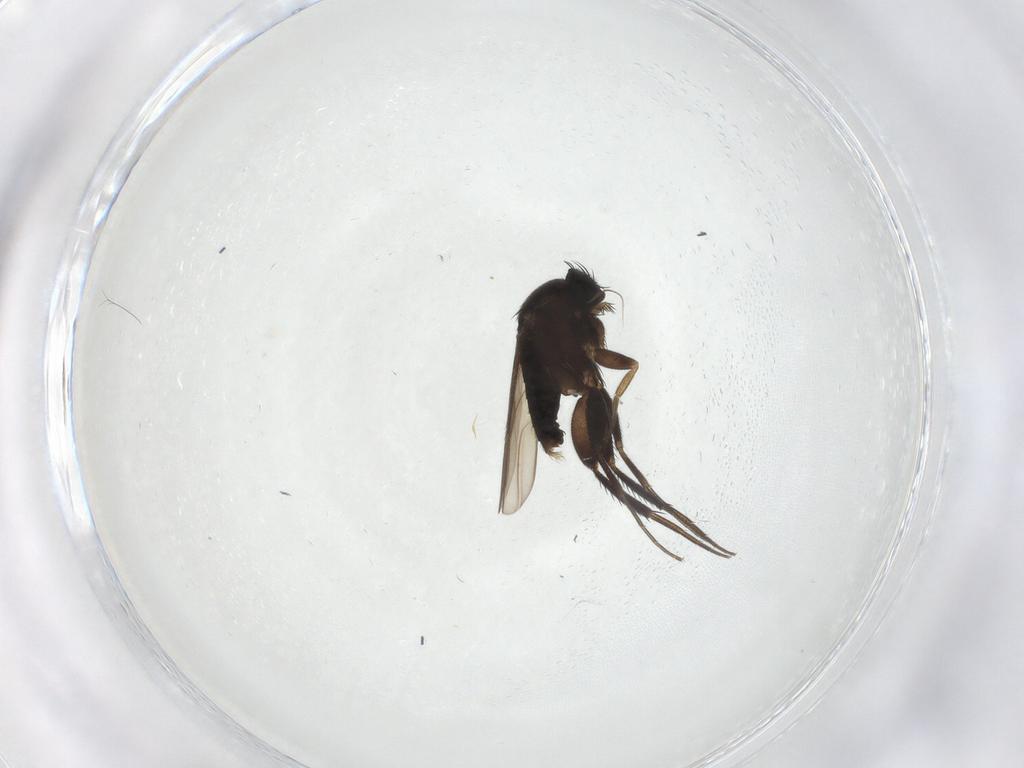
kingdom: Animalia
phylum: Arthropoda
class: Insecta
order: Diptera
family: Phoridae
